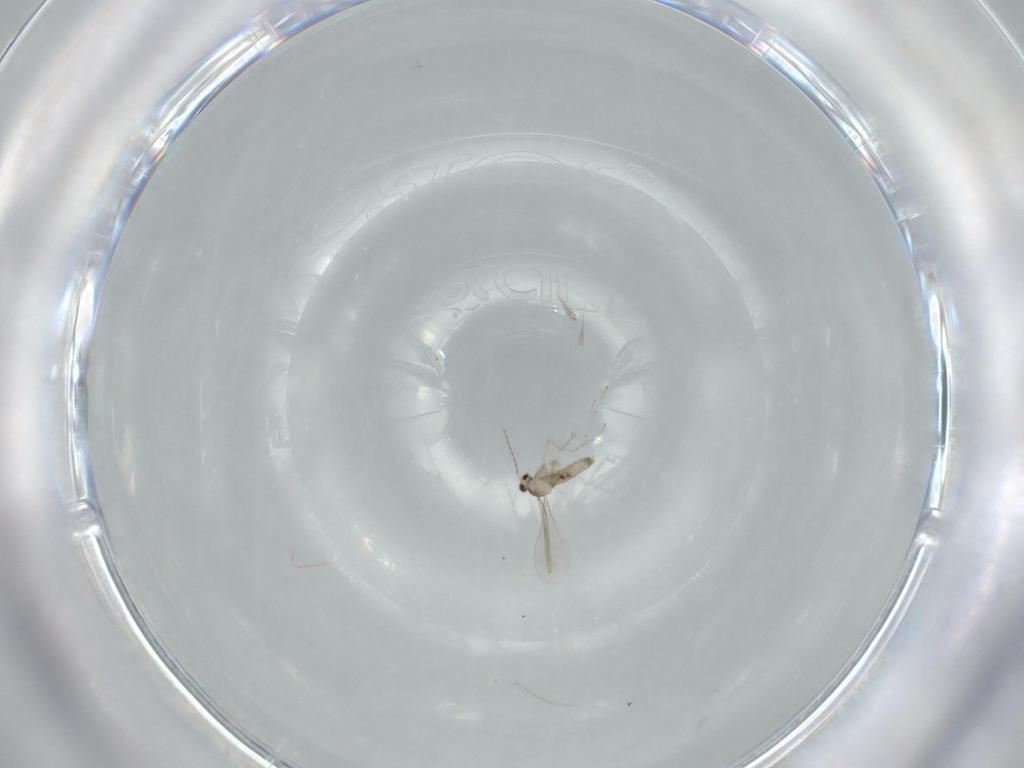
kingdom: Animalia
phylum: Arthropoda
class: Insecta
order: Diptera
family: Cecidomyiidae
